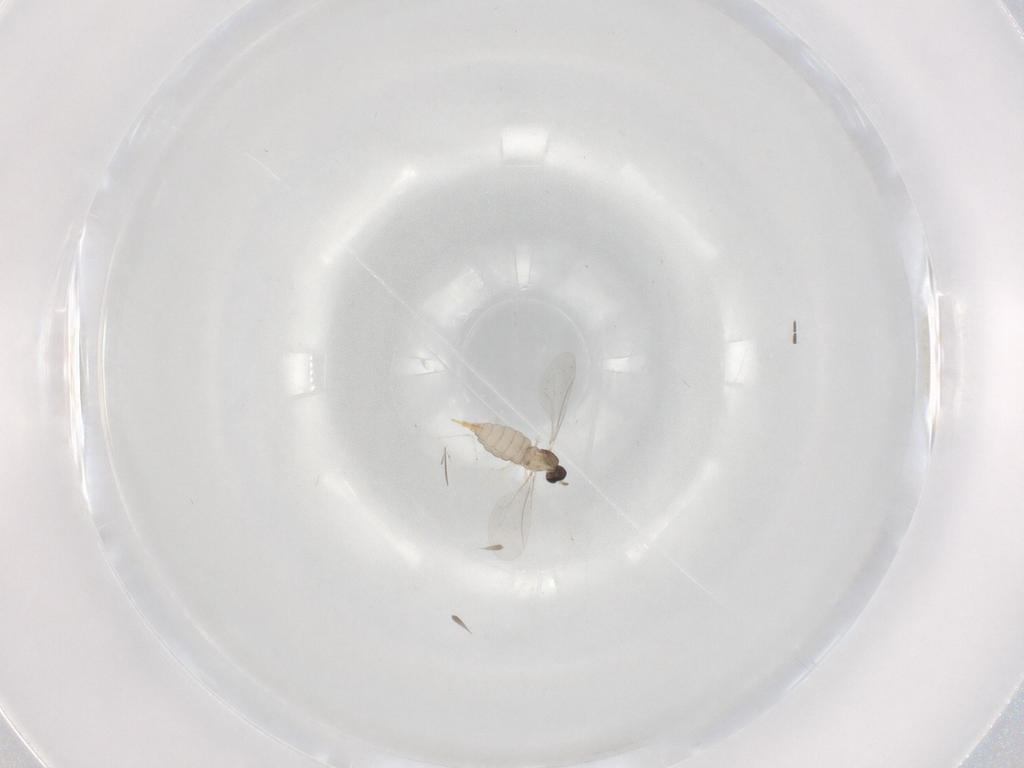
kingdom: Animalia
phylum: Arthropoda
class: Insecta
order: Diptera
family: Cecidomyiidae
